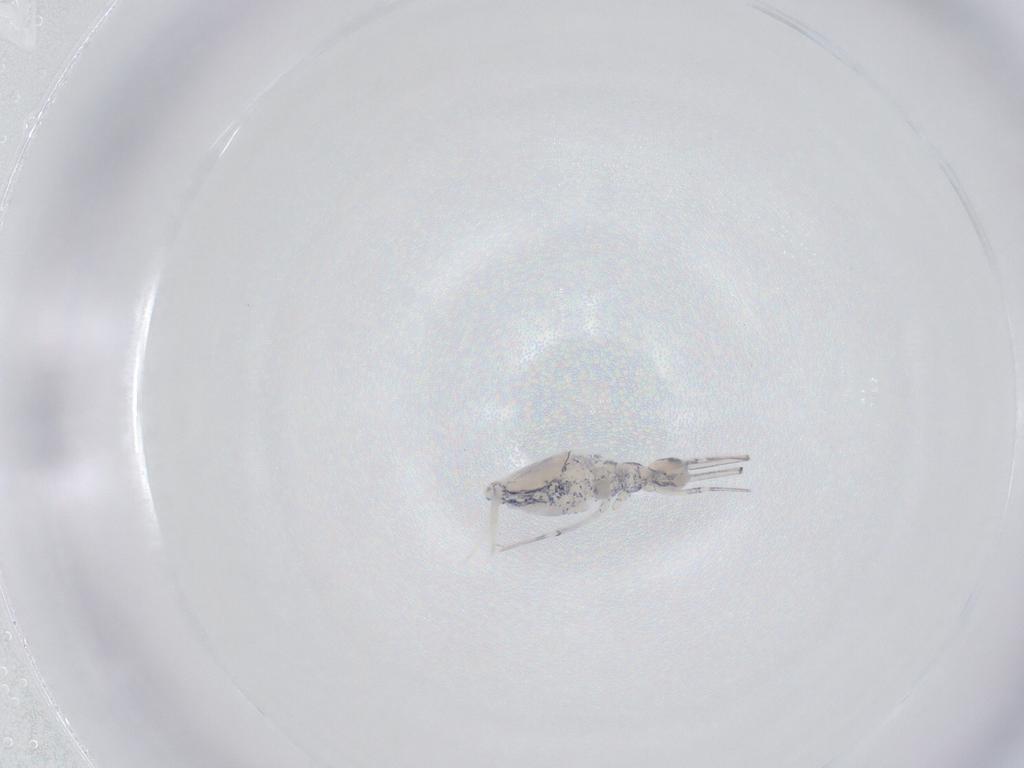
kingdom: Animalia
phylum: Arthropoda
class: Collembola
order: Entomobryomorpha
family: Paronellidae
